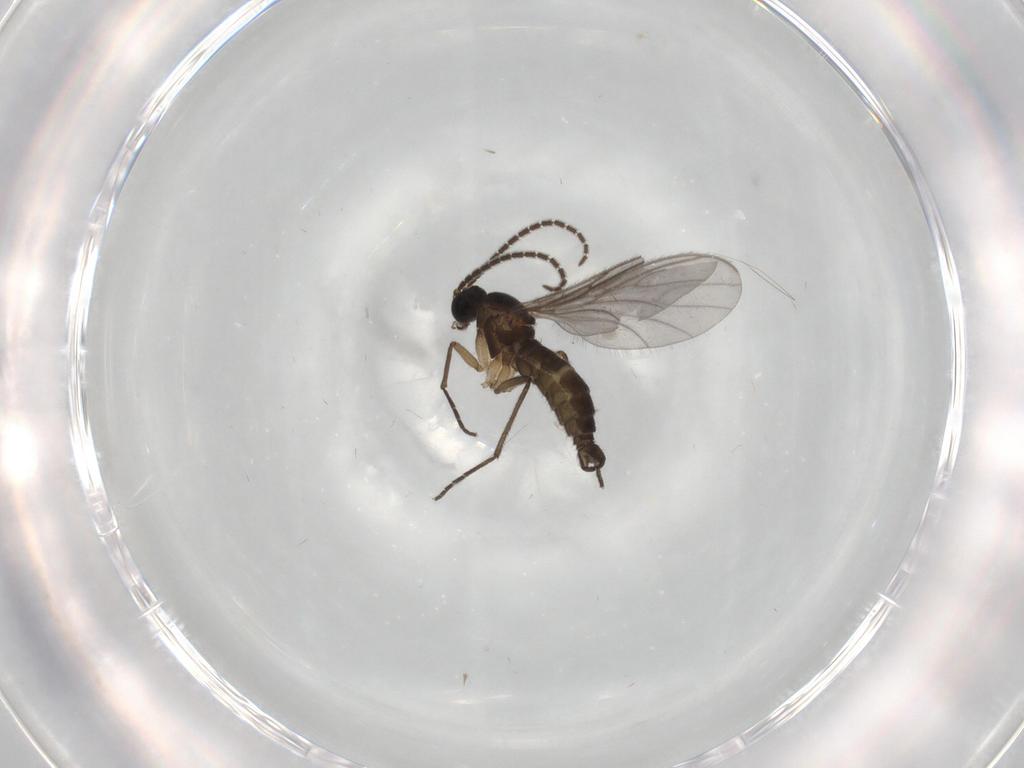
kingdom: Animalia
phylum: Arthropoda
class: Insecta
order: Diptera
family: Sciaridae
